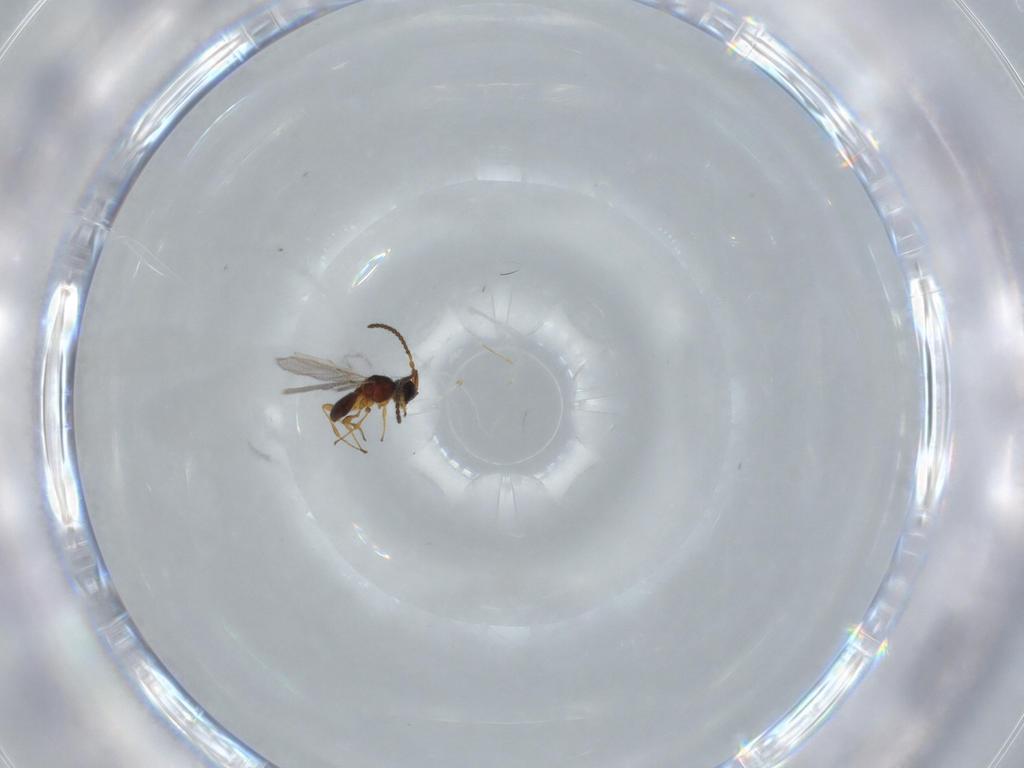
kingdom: Animalia
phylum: Arthropoda
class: Insecta
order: Hymenoptera
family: Diapriidae
